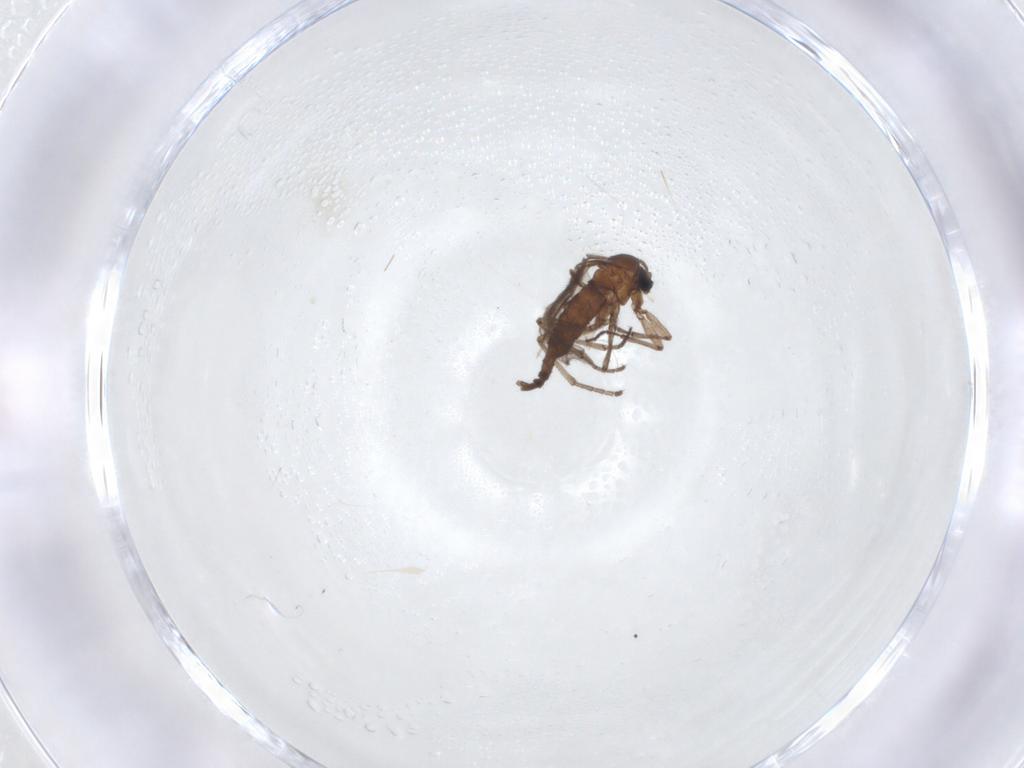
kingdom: Animalia
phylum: Arthropoda
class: Insecta
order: Diptera
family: Sciaridae
